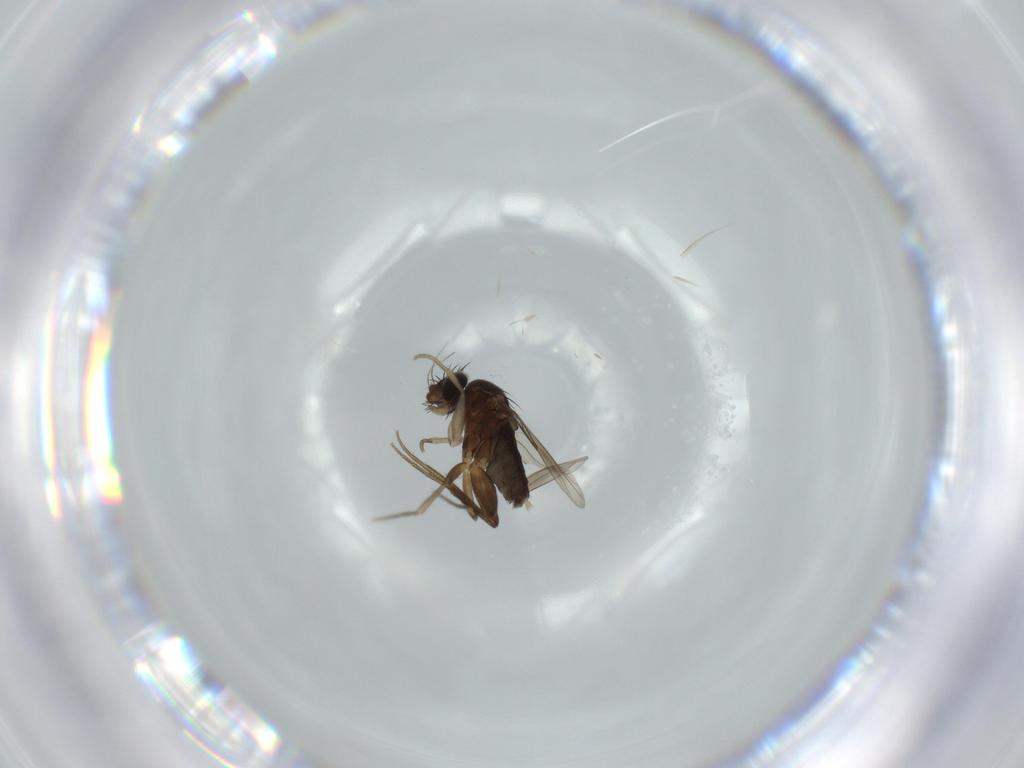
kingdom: Animalia
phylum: Arthropoda
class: Insecta
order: Diptera
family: Phoridae
